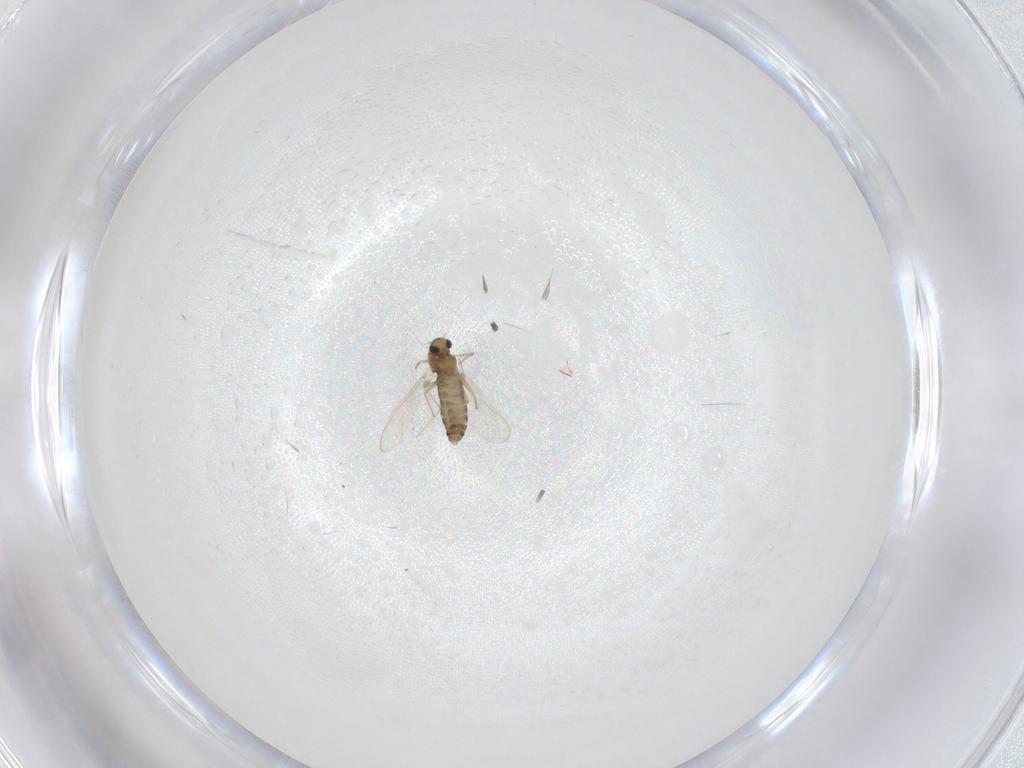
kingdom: Animalia
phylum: Arthropoda
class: Insecta
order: Diptera
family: Chironomidae
